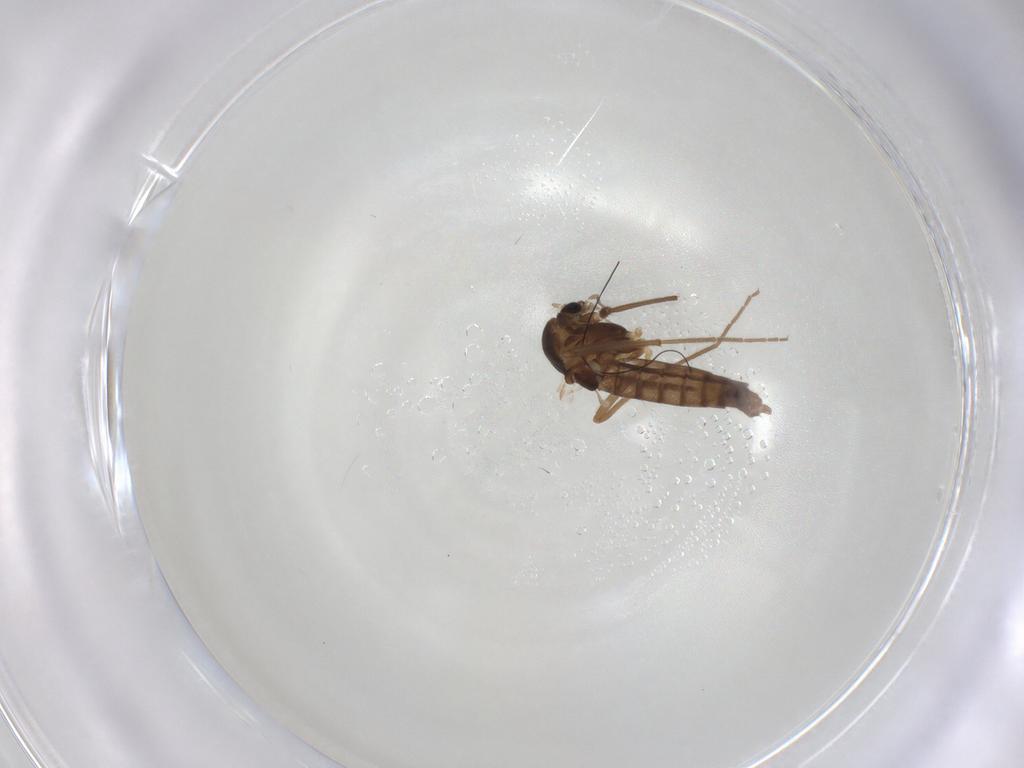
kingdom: Animalia
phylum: Arthropoda
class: Insecta
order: Diptera
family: Chironomidae
